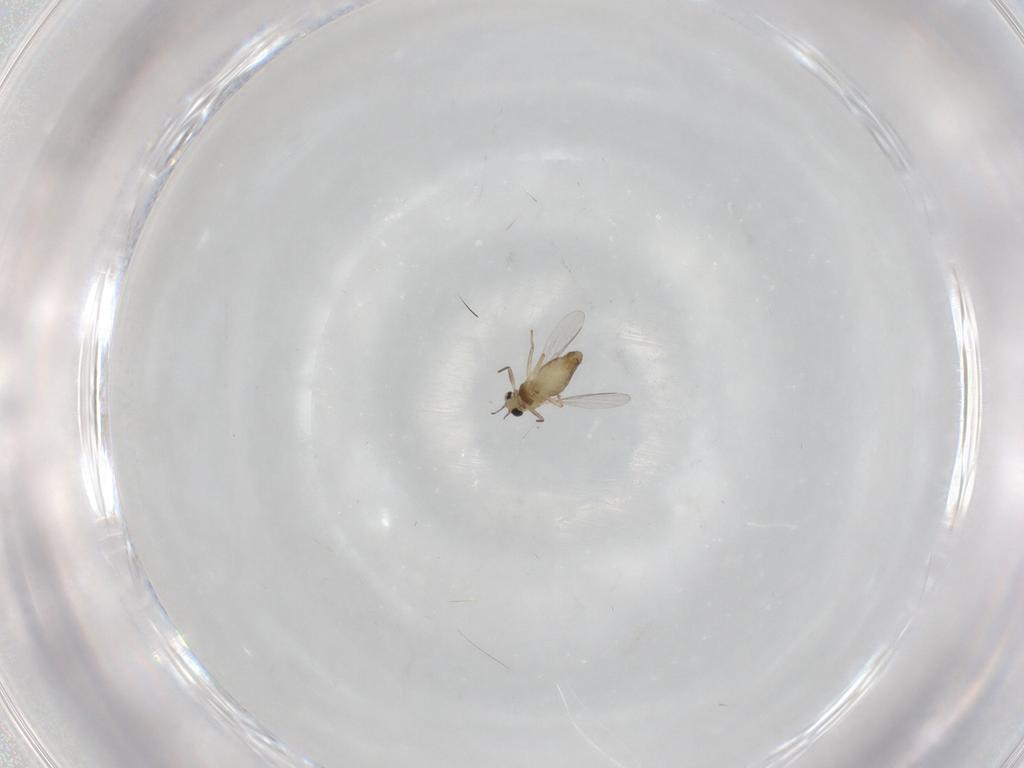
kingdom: Animalia
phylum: Arthropoda
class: Insecta
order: Diptera
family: Chironomidae
